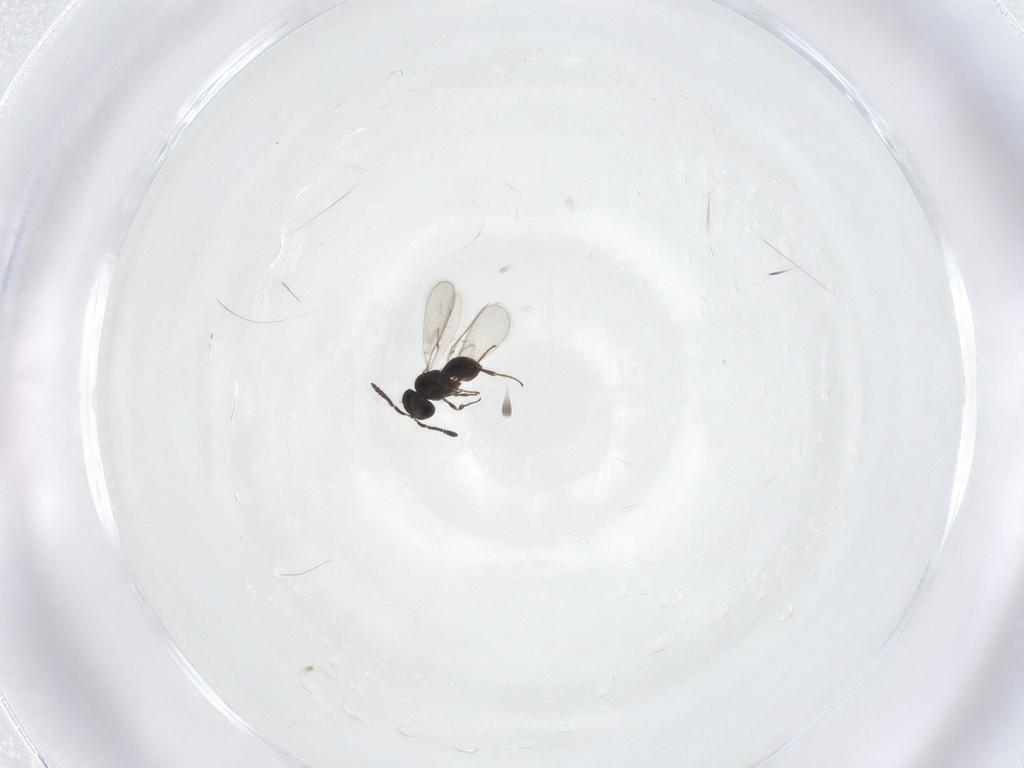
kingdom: Animalia
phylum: Arthropoda
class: Insecta
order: Hymenoptera
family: Scelionidae
